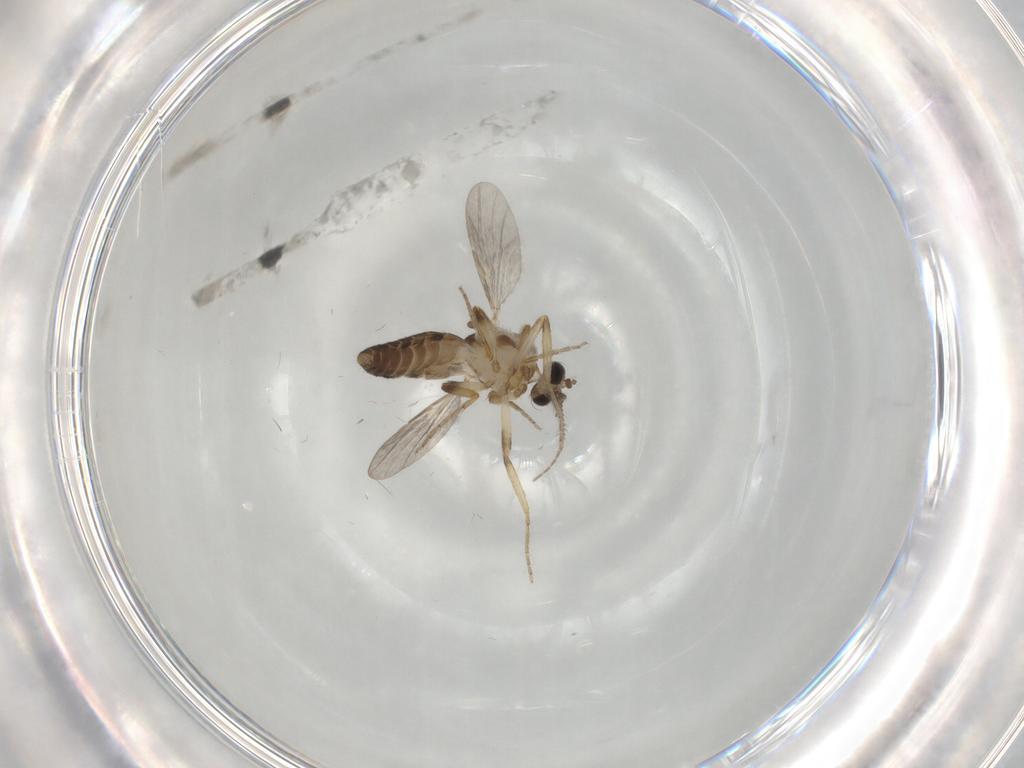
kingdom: Animalia
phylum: Arthropoda
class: Insecta
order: Diptera
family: Ceratopogonidae
